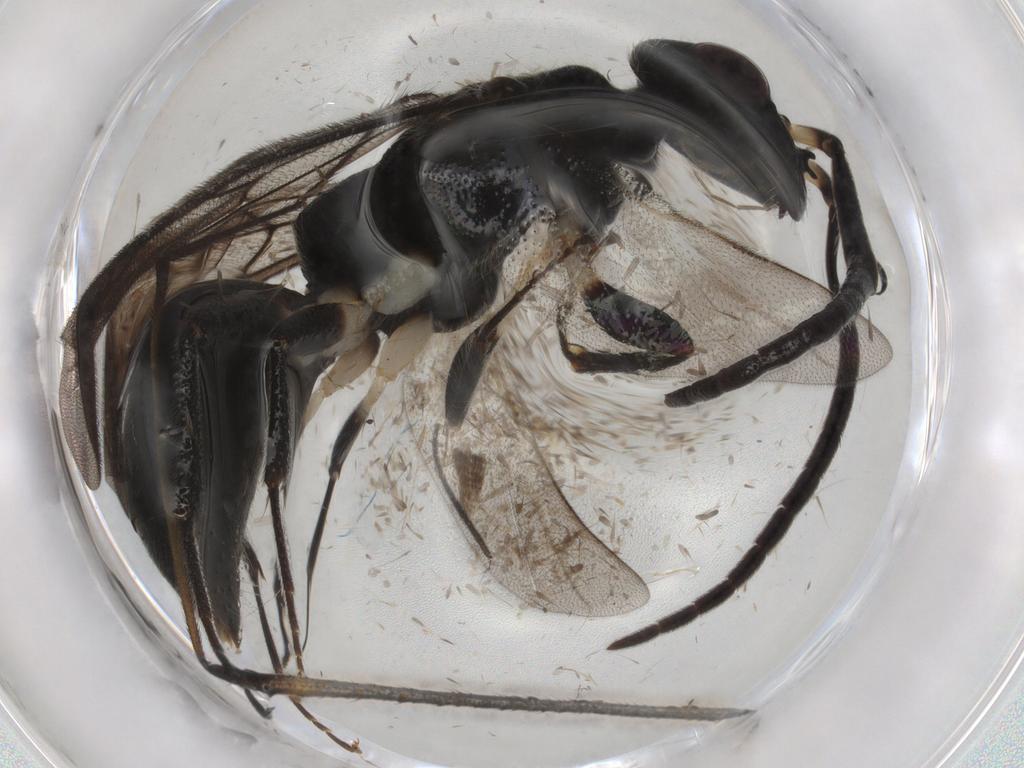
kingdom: Animalia
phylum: Arthropoda
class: Insecta
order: Hymenoptera
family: Bethylidae
